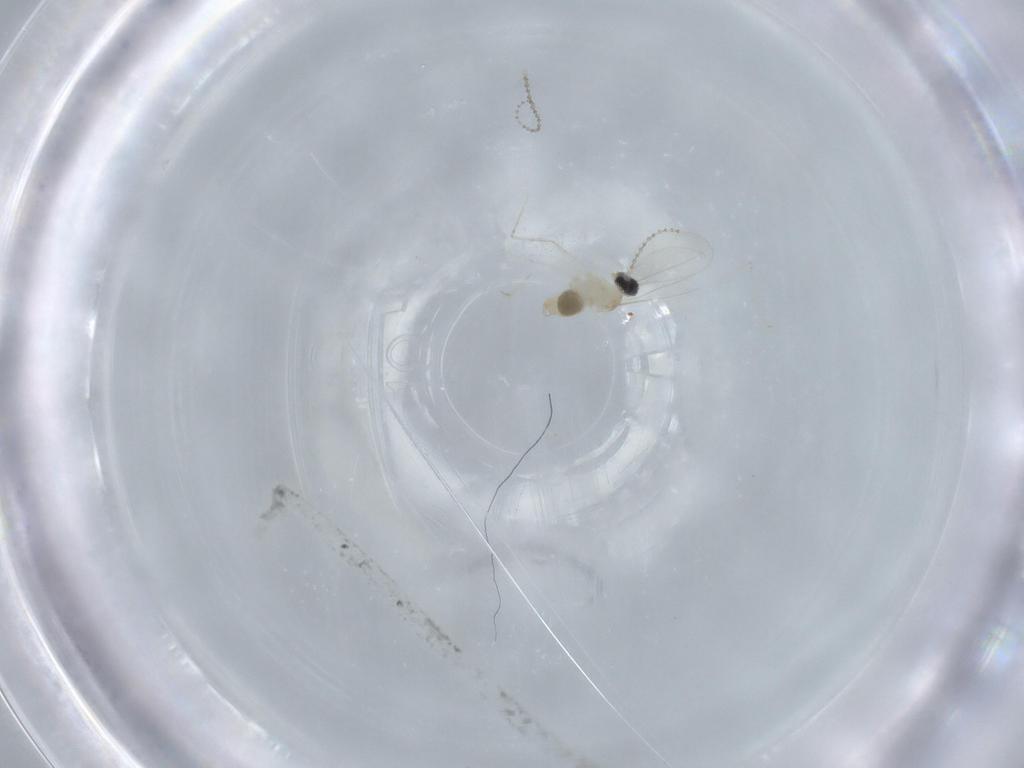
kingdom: Animalia
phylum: Arthropoda
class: Insecta
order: Diptera
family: Cecidomyiidae
